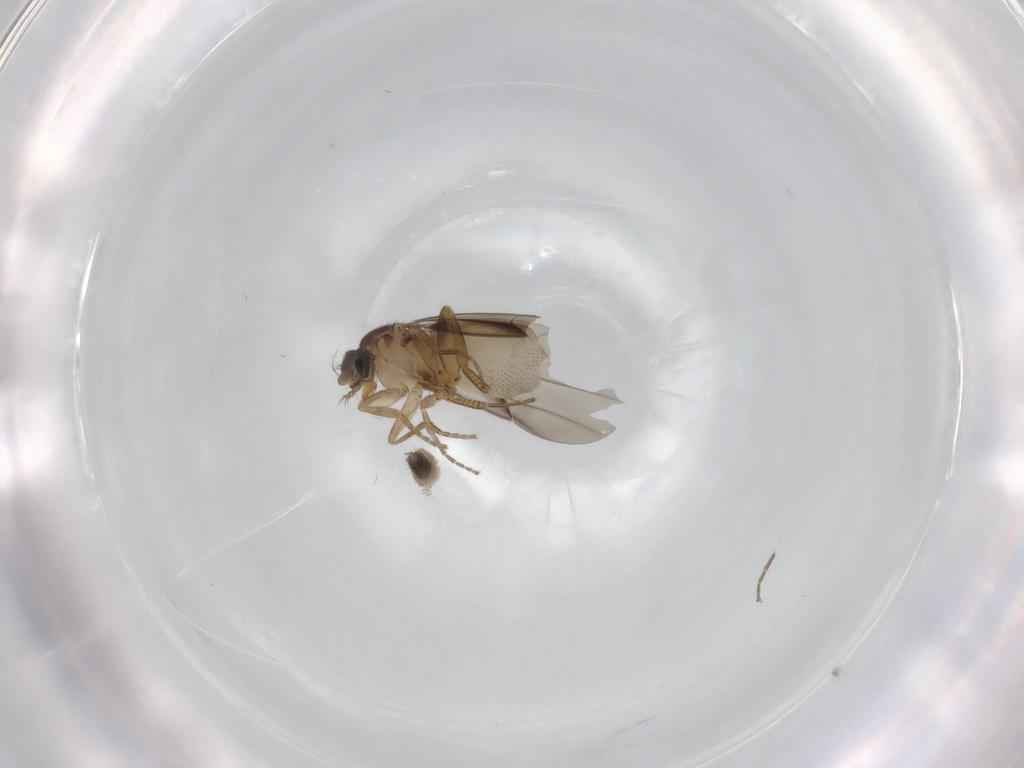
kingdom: Animalia
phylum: Arthropoda
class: Insecta
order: Diptera
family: Phoridae
